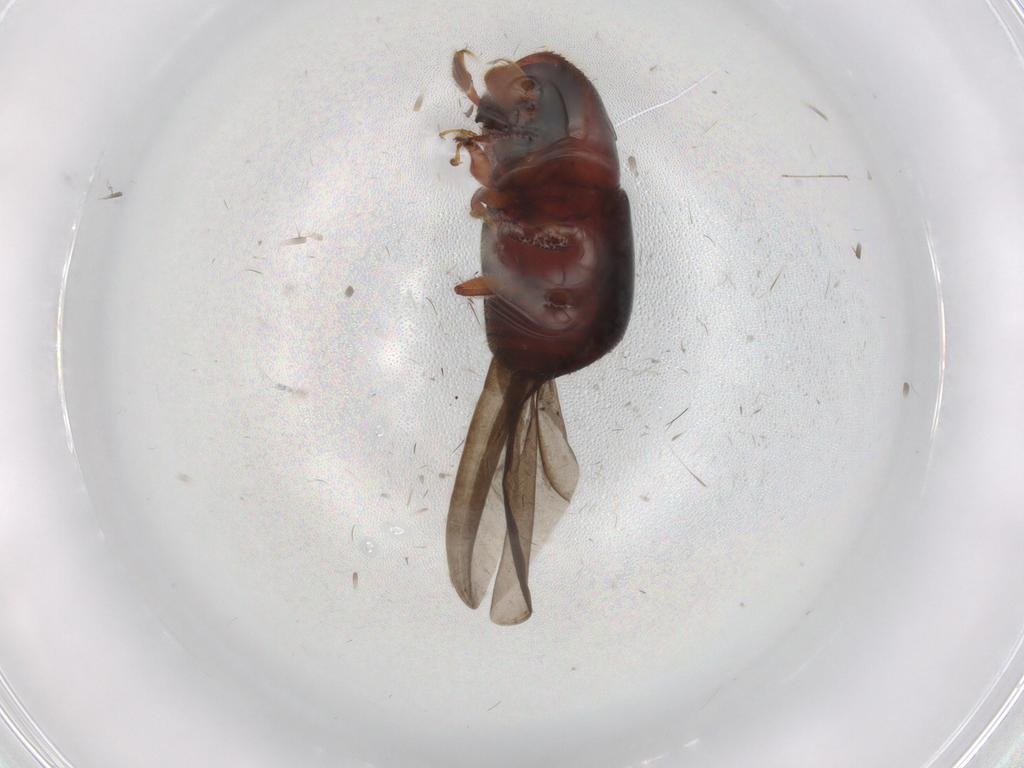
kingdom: Animalia
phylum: Arthropoda
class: Insecta
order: Coleoptera
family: Curculionidae
